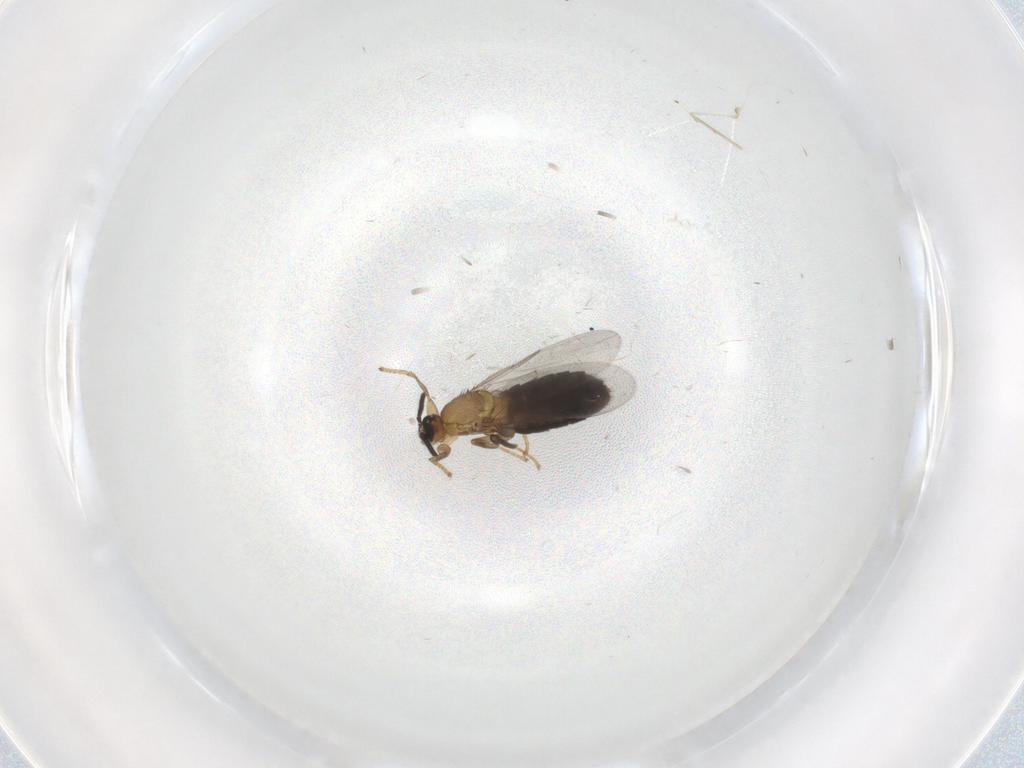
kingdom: Animalia
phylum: Arthropoda
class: Insecta
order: Diptera
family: Scatopsidae
